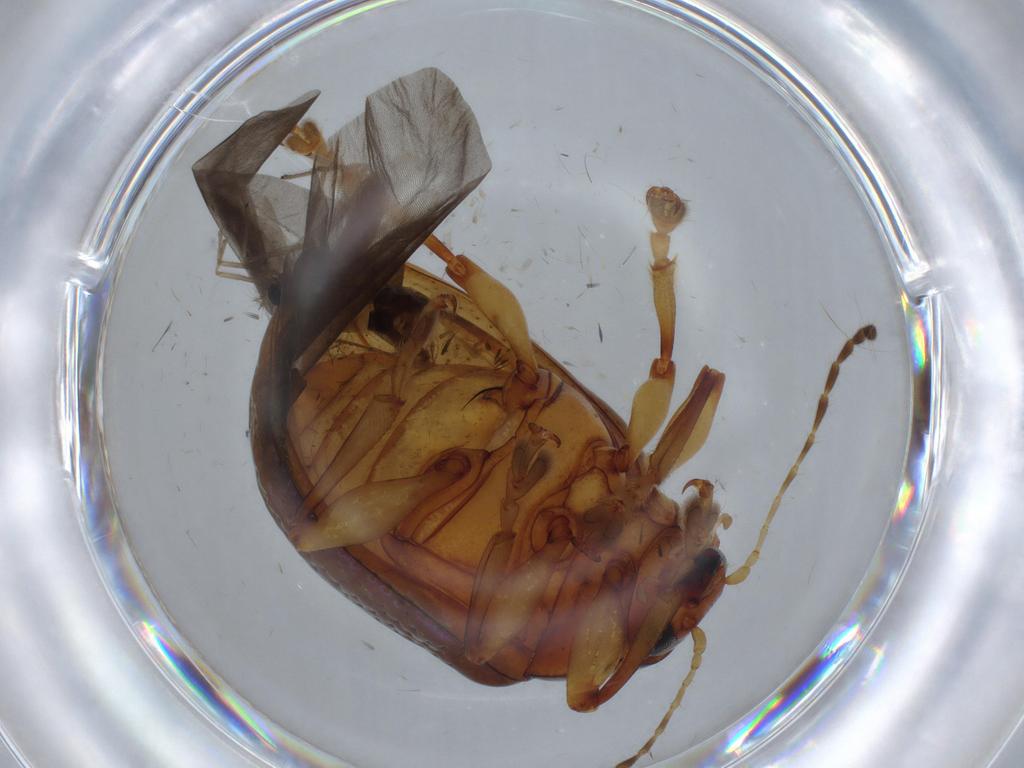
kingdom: Animalia
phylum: Arthropoda
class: Insecta
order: Coleoptera
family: Chrysomelidae
